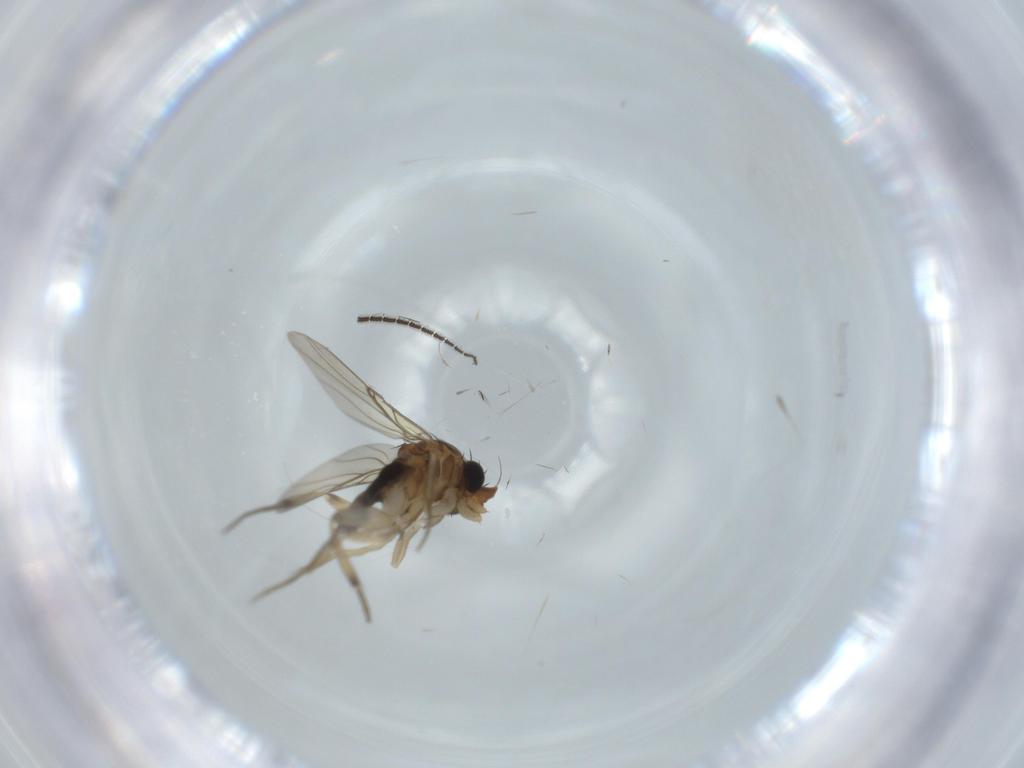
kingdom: Animalia
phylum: Arthropoda
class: Insecta
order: Diptera
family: Phoridae
